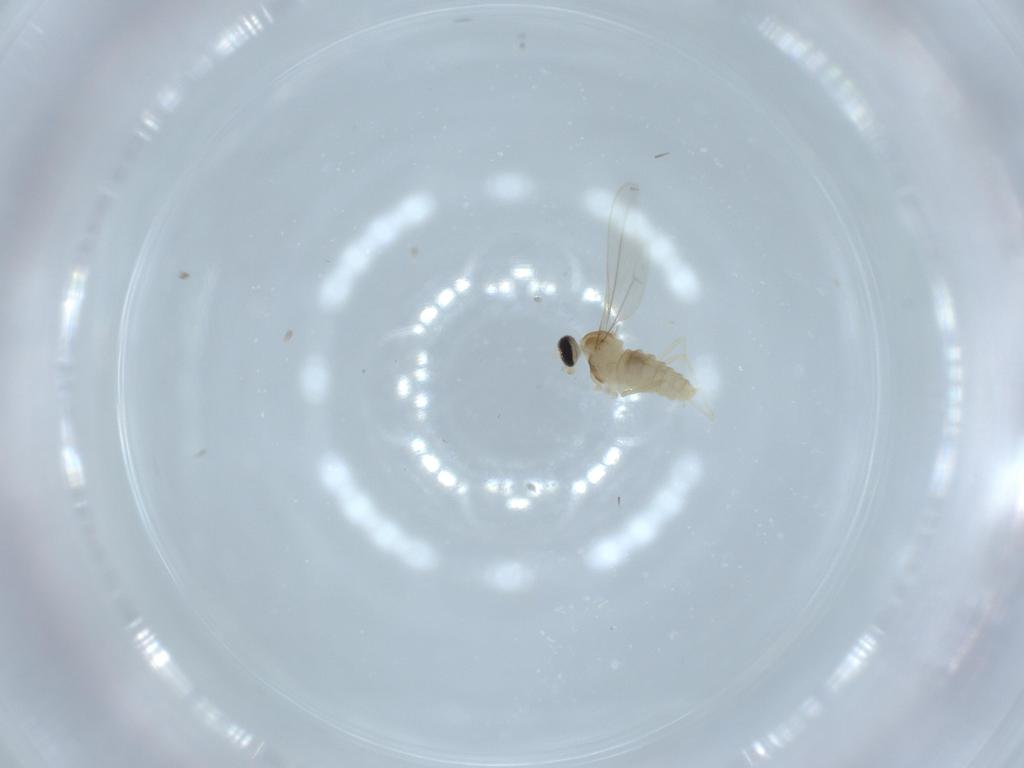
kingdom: Animalia
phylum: Arthropoda
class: Insecta
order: Diptera
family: Cecidomyiidae
